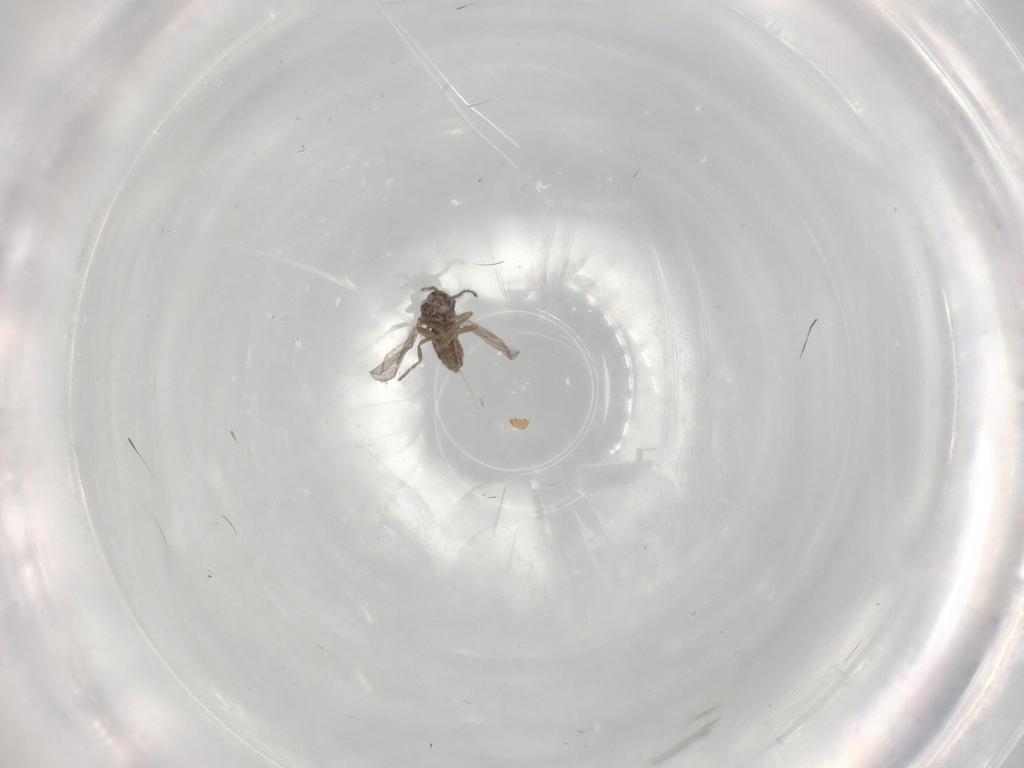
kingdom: Animalia
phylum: Arthropoda
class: Insecta
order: Diptera
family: Ceratopogonidae
